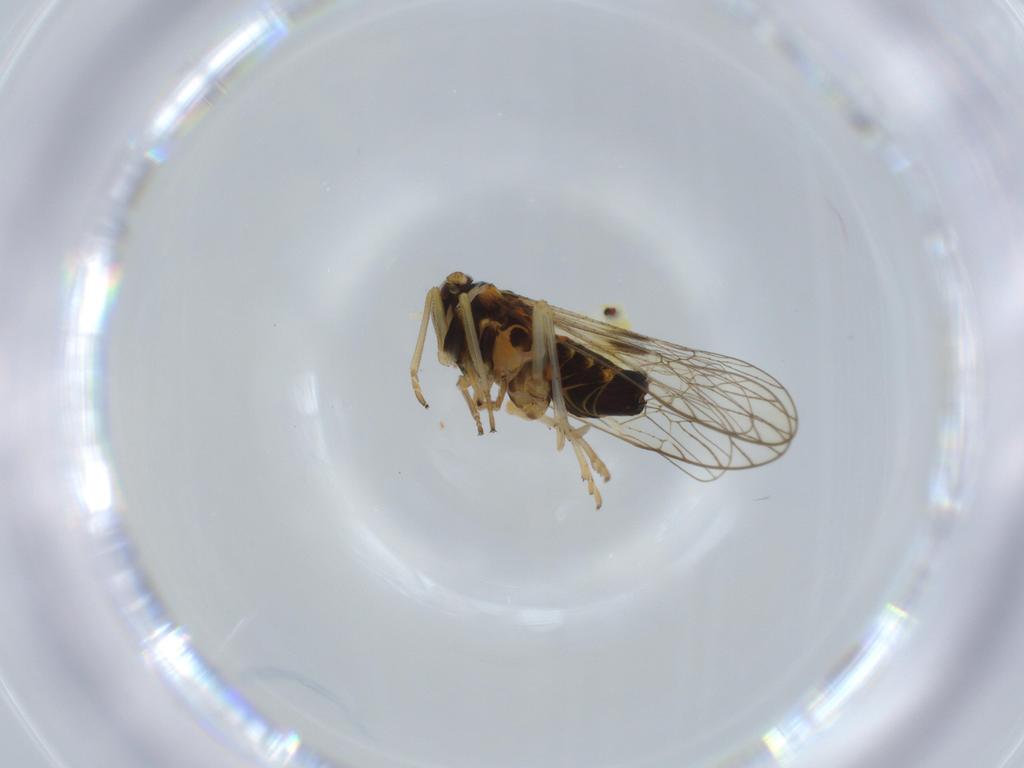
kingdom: Animalia
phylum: Arthropoda
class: Insecta
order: Hemiptera
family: Aleyrodidae
